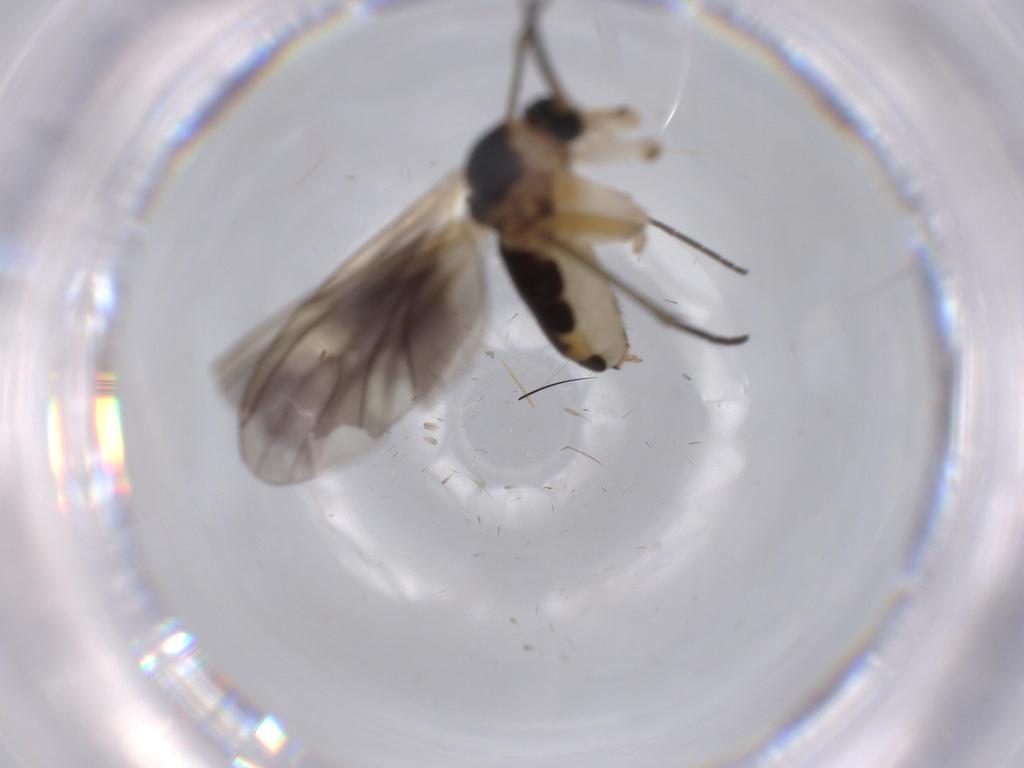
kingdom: Animalia
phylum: Arthropoda
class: Insecta
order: Diptera
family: Sciaridae
